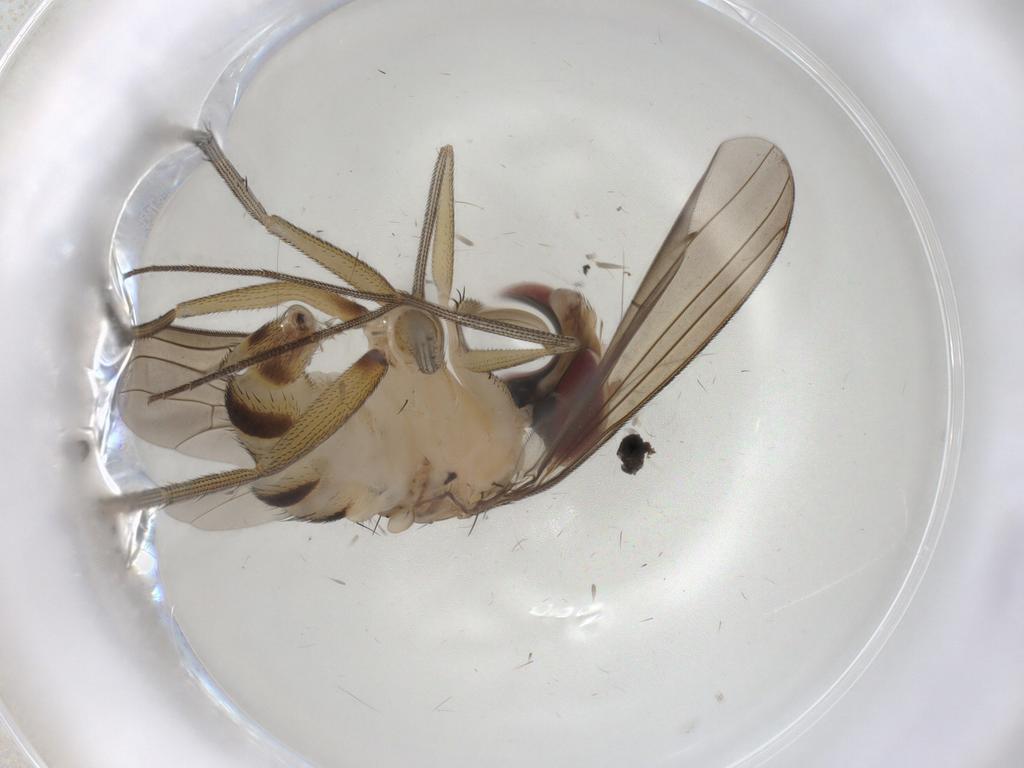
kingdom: Animalia
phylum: Arthropoda
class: Insecta
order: Diptera
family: Dolichopodidae
